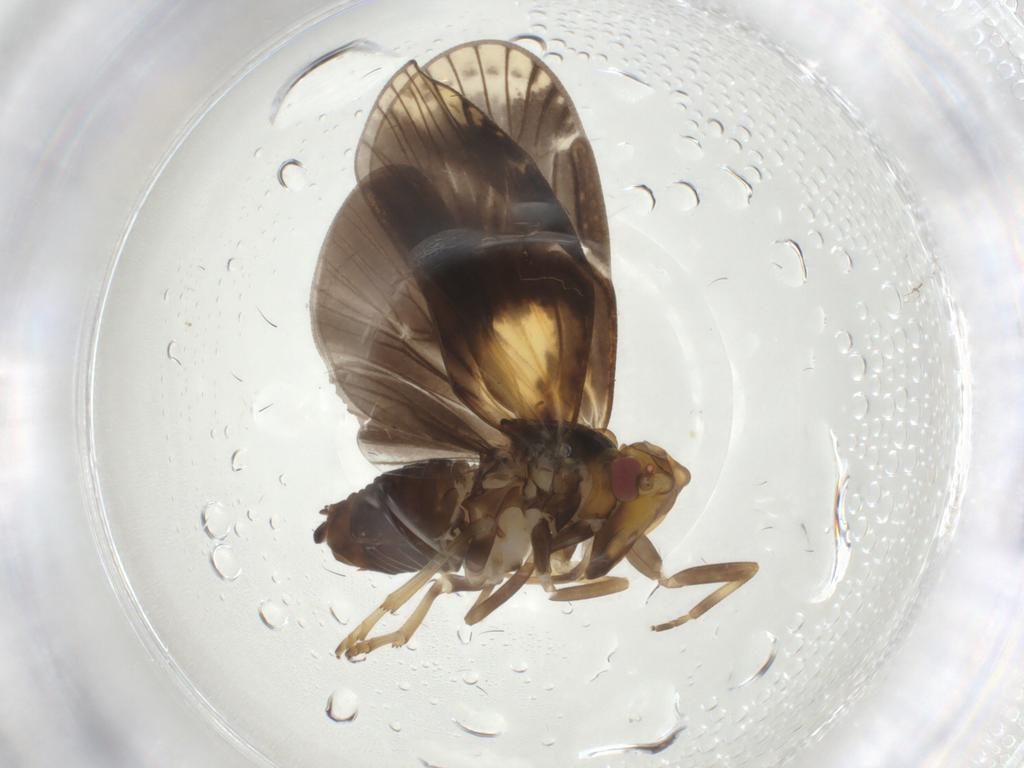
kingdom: Animalia
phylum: Arthropoda
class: Insecta
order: Hemiptera
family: Cixiidae
